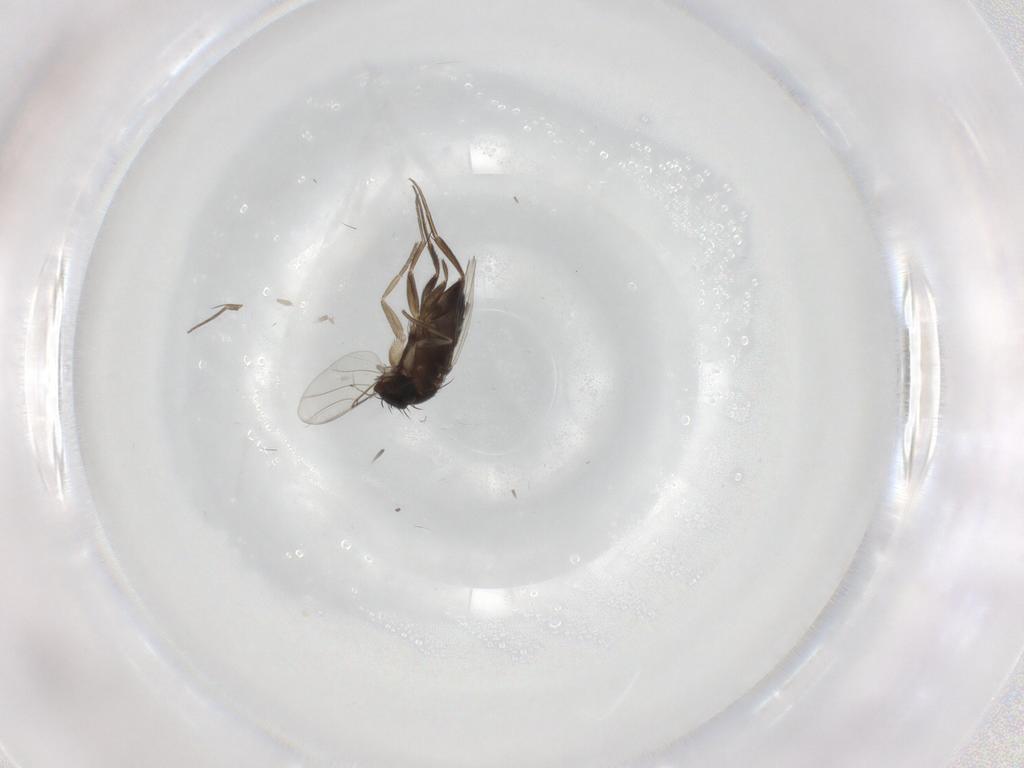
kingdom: Animalia
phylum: Arthropoda
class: Insecta
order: Diptera
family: Phoridae
